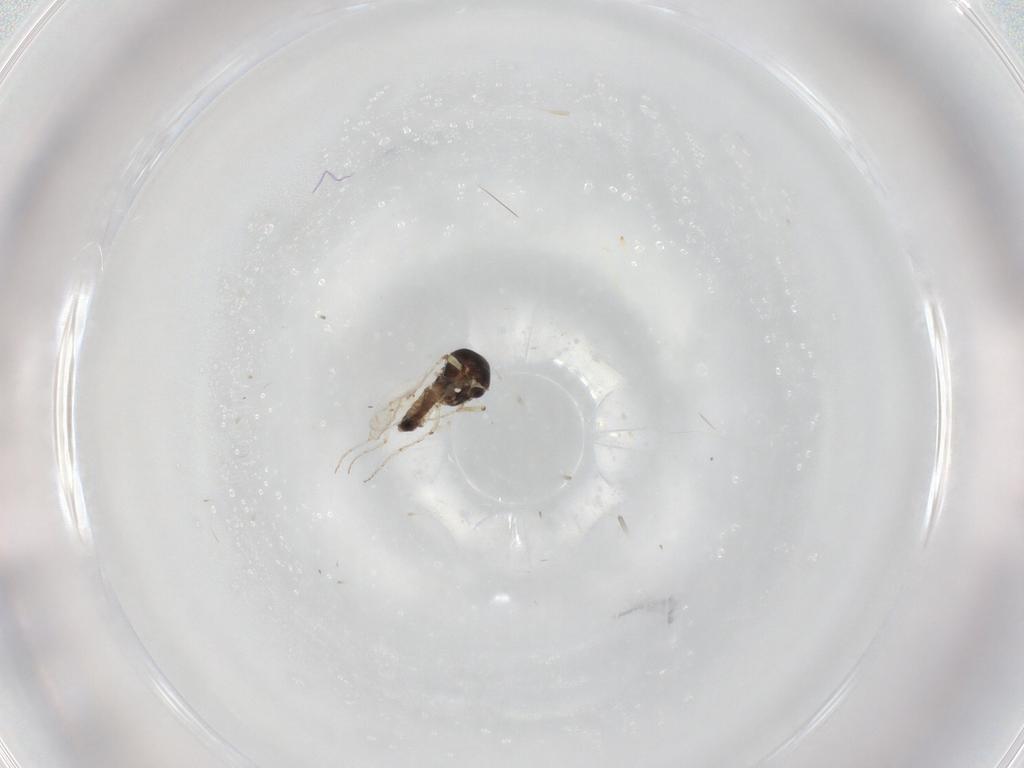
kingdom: Animalia
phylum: Arthropoda
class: Insecta
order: Diptera
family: Ceratopogonidae
